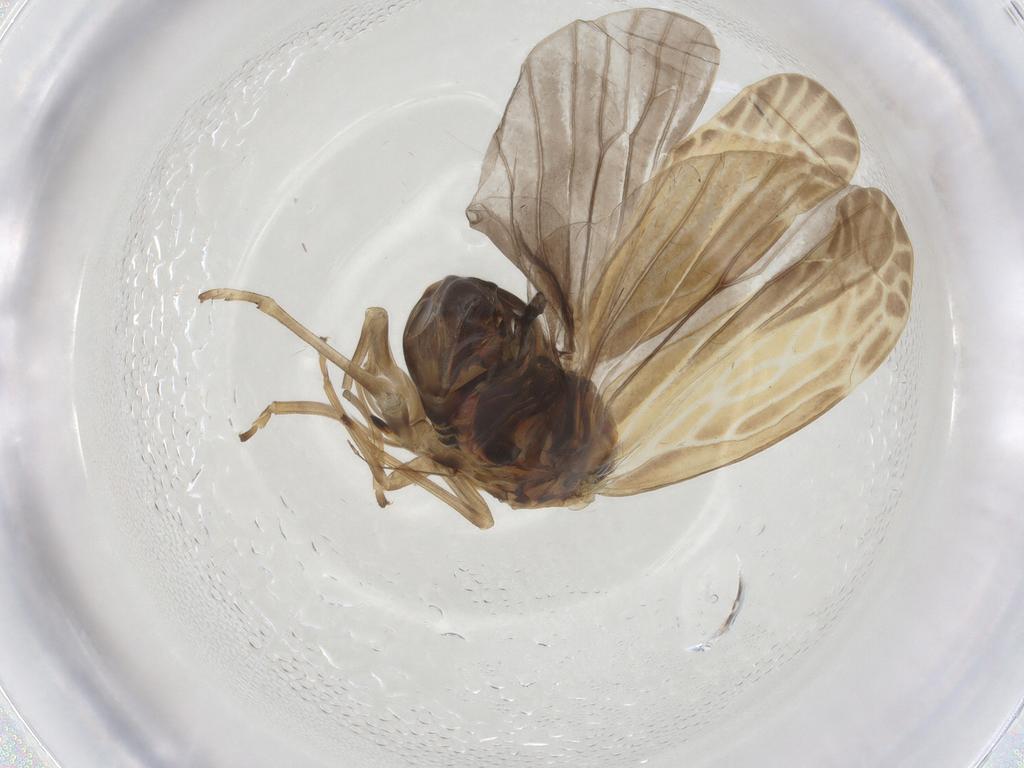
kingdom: Animalia
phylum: Arthropoda
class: Insecta
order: Hemiptera
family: Derbidae
